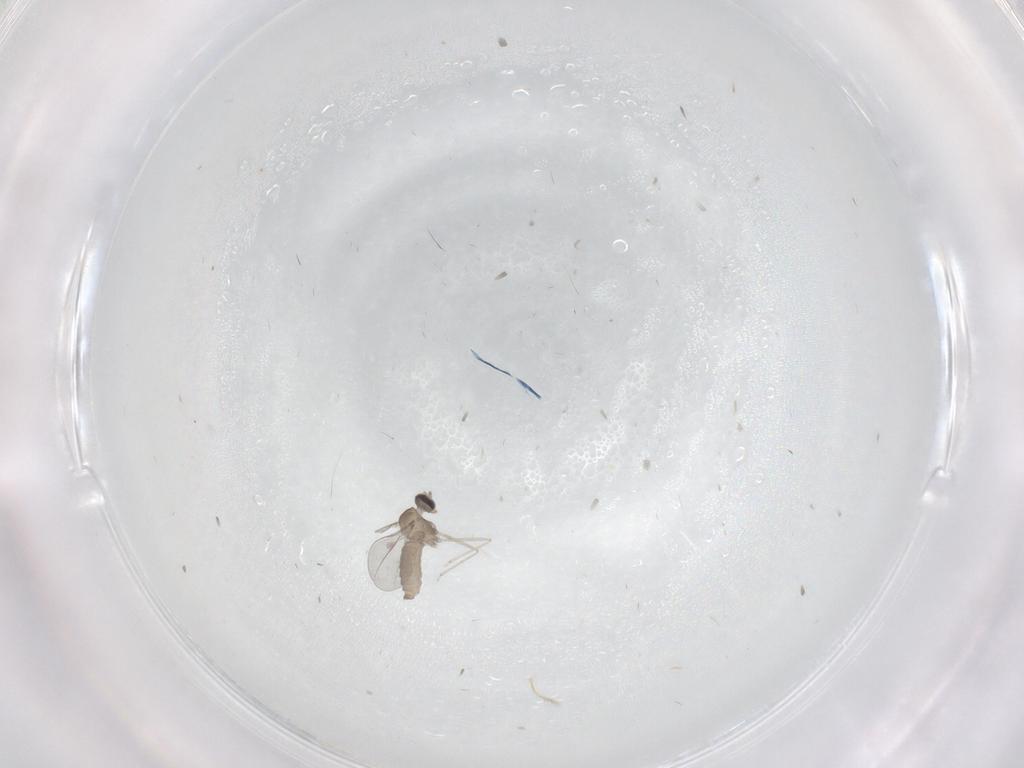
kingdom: Animalia
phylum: Arthropoda
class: Insecta
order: Diptera
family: Cecidomyiidae
